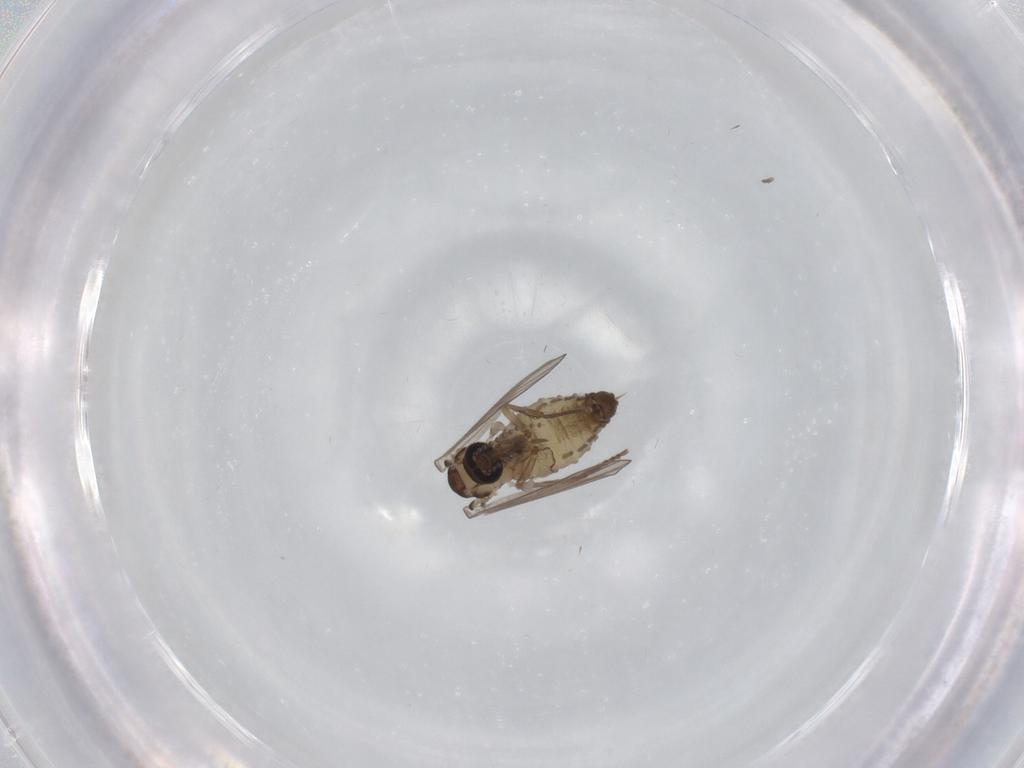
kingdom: Animalia
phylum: Arthropoda
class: Insecta
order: Diptera
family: Psychodidae
